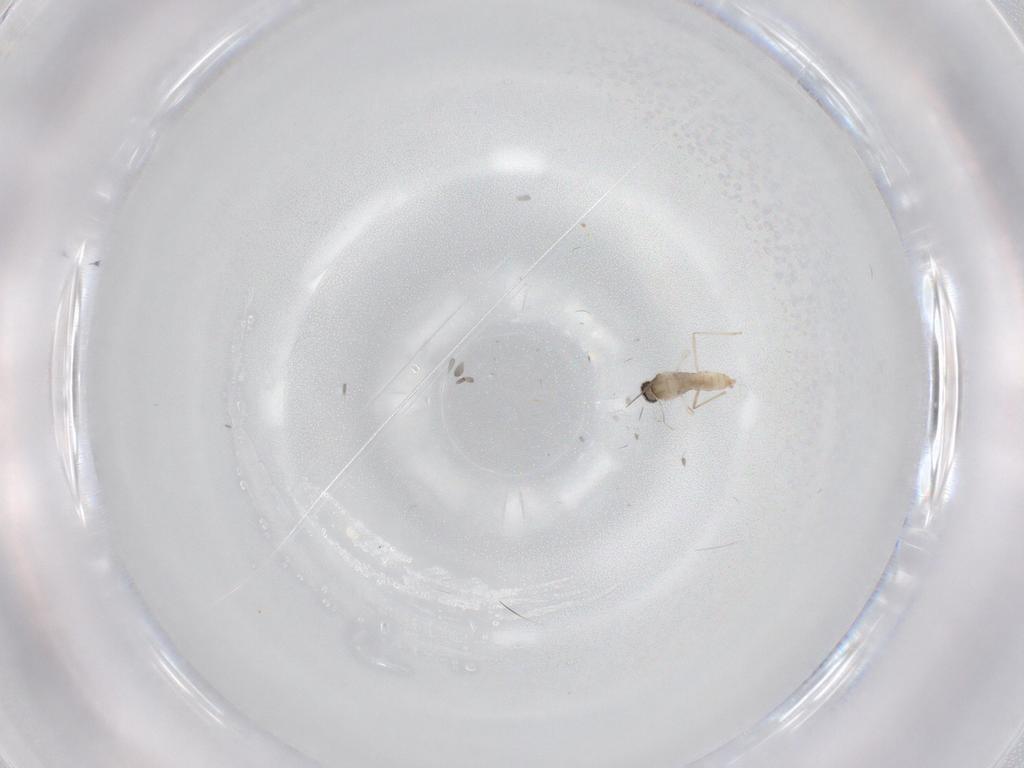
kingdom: Animalia
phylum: Arthropoda
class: Insecta
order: Diptera
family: Cecidomyiidae
